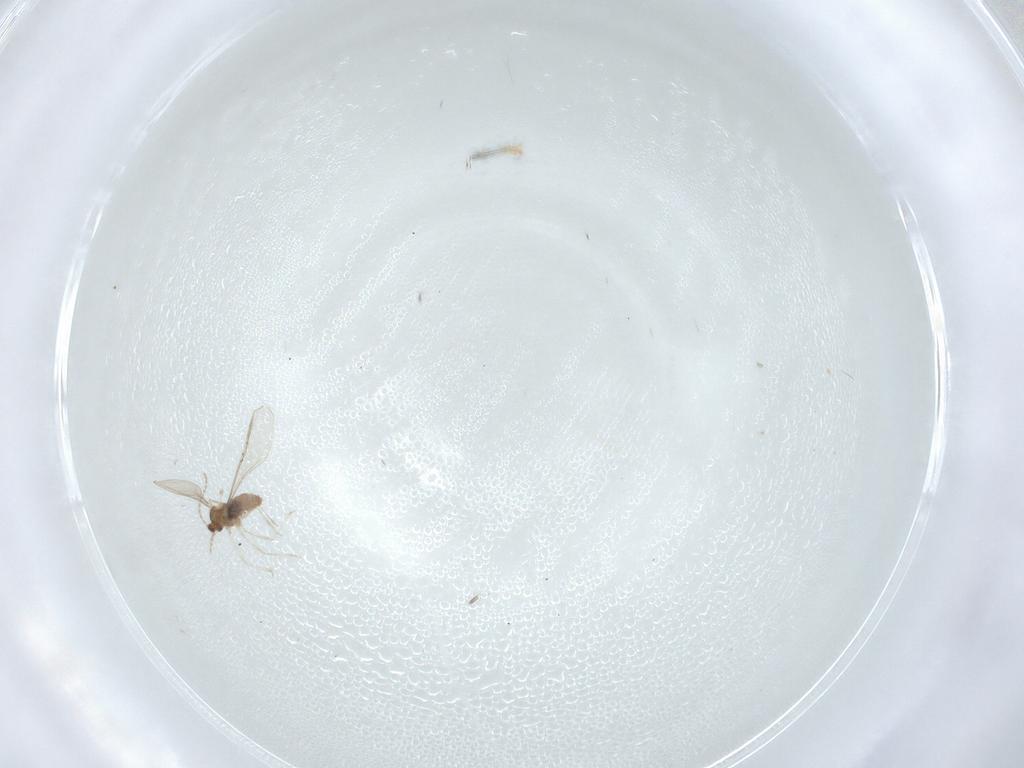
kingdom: Animalia
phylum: Arthropoda
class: Insecta
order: Diptera
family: Cecidomyiidae
